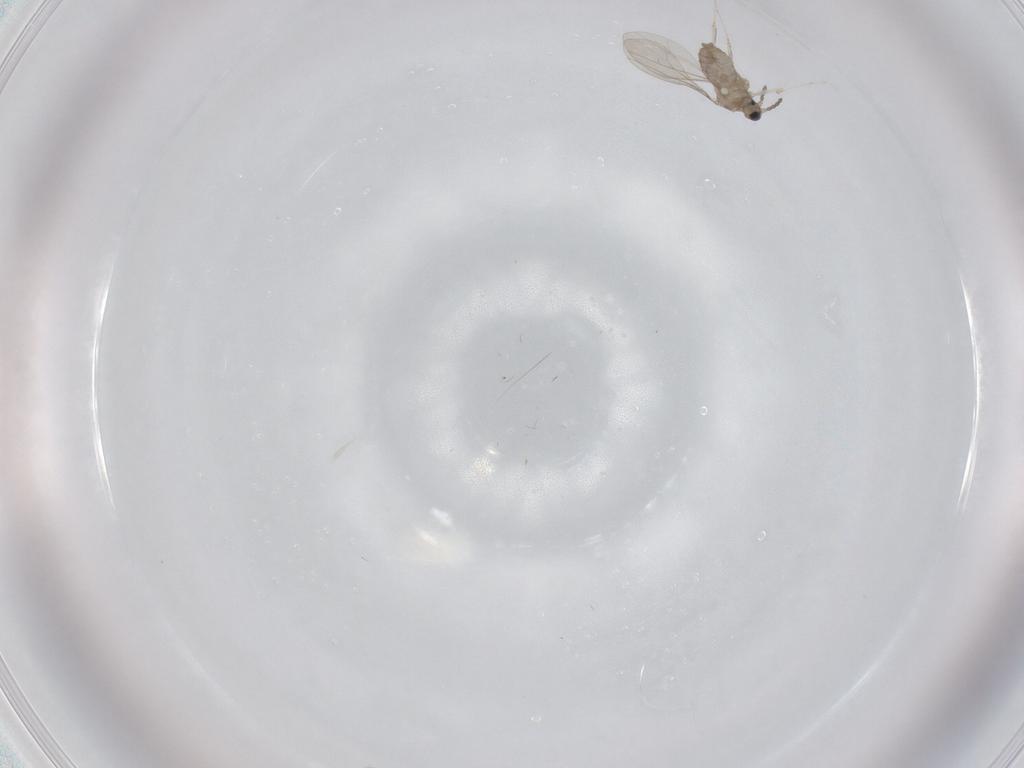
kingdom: Animalia
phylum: Arthropoda
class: Insecta
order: Diptera
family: Cecidomyiidae
